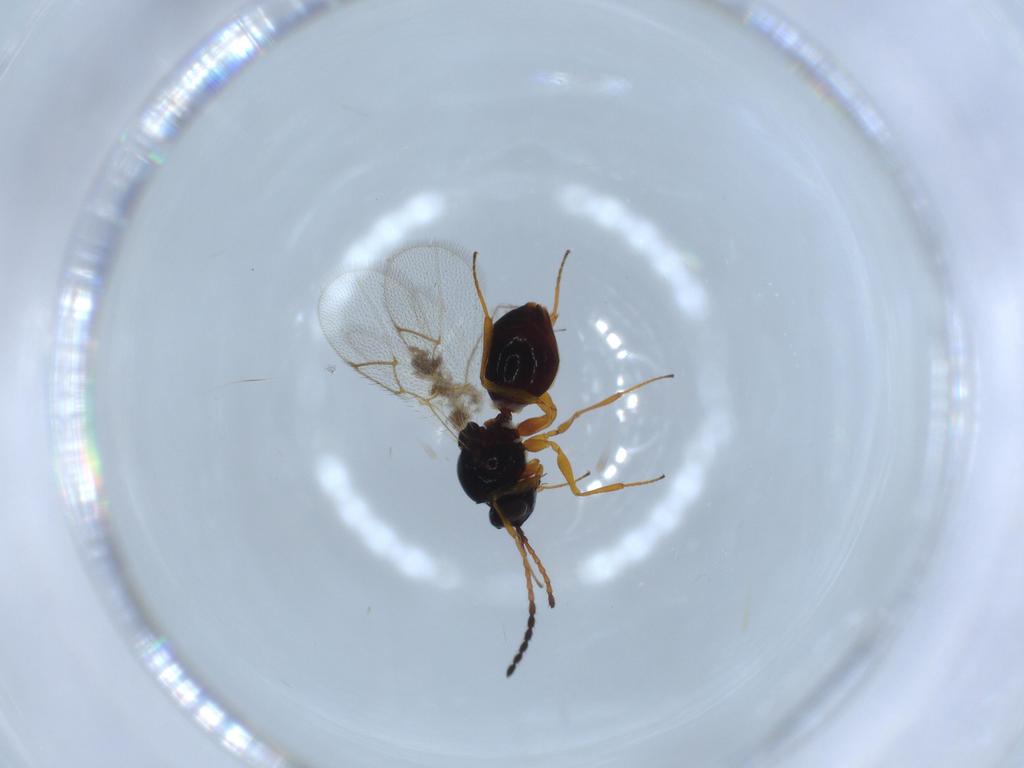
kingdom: Animalia
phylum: Arthropoda
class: Insecta
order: Hymenoptera
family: Figitidae
